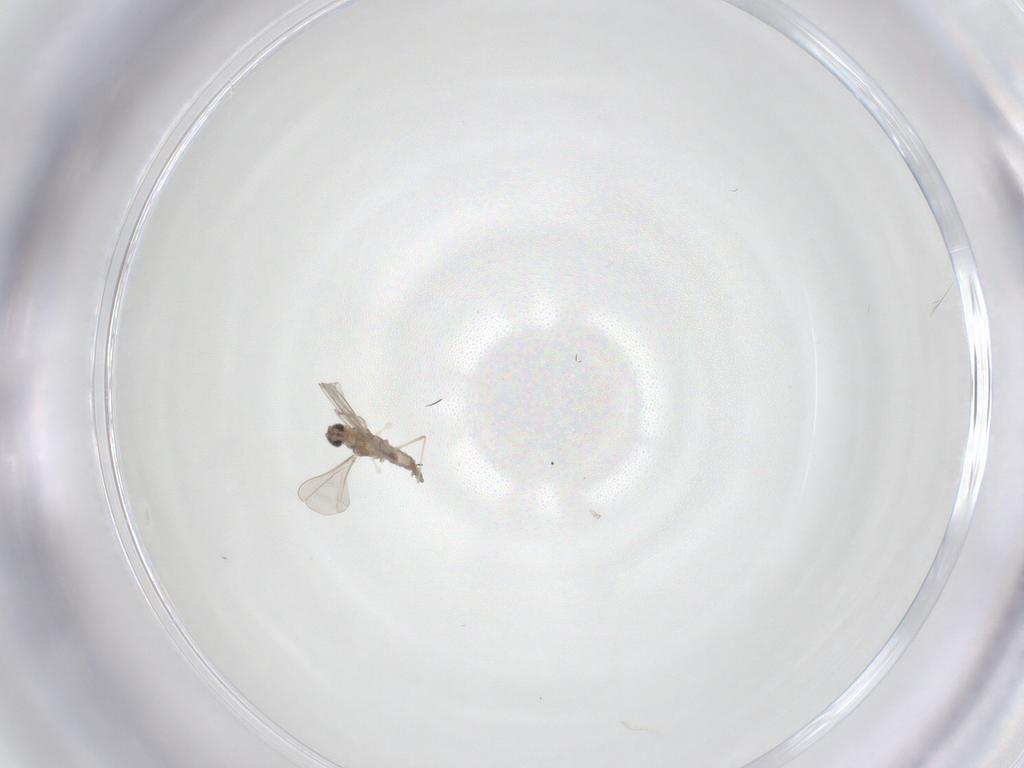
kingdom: Animalia
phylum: Arthropoda
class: Insecta
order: Diptera
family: Cecidomyiidae
